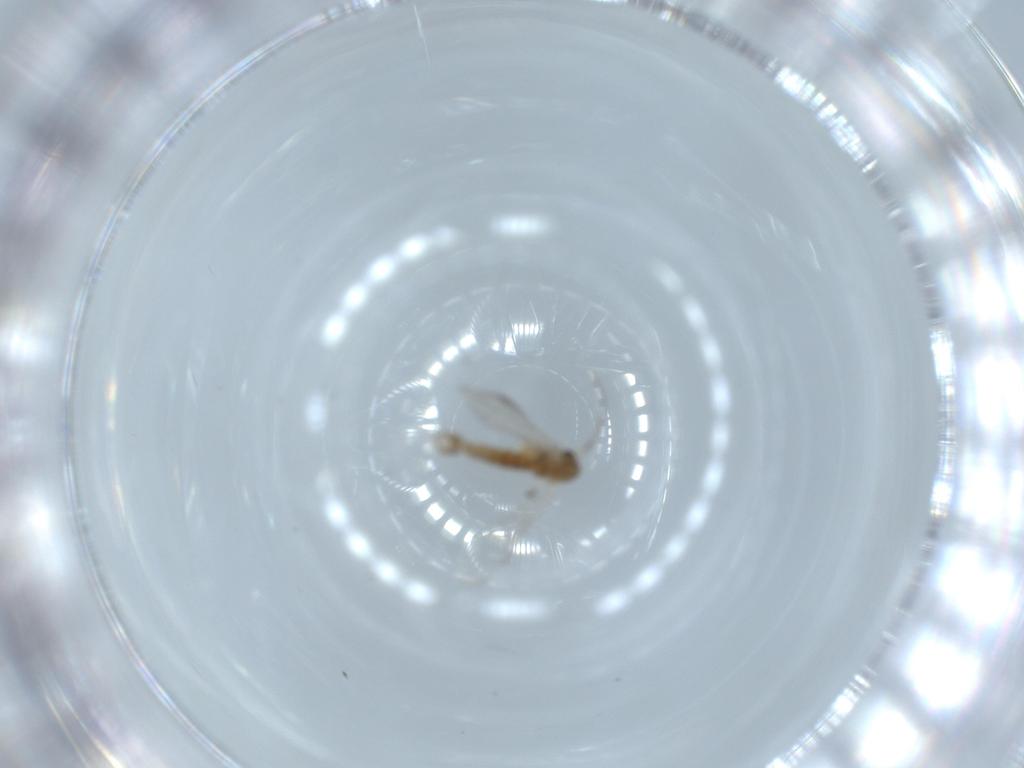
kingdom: Animalia
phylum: Arthropoda
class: Insecta
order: Diptera
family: Psychodidae
